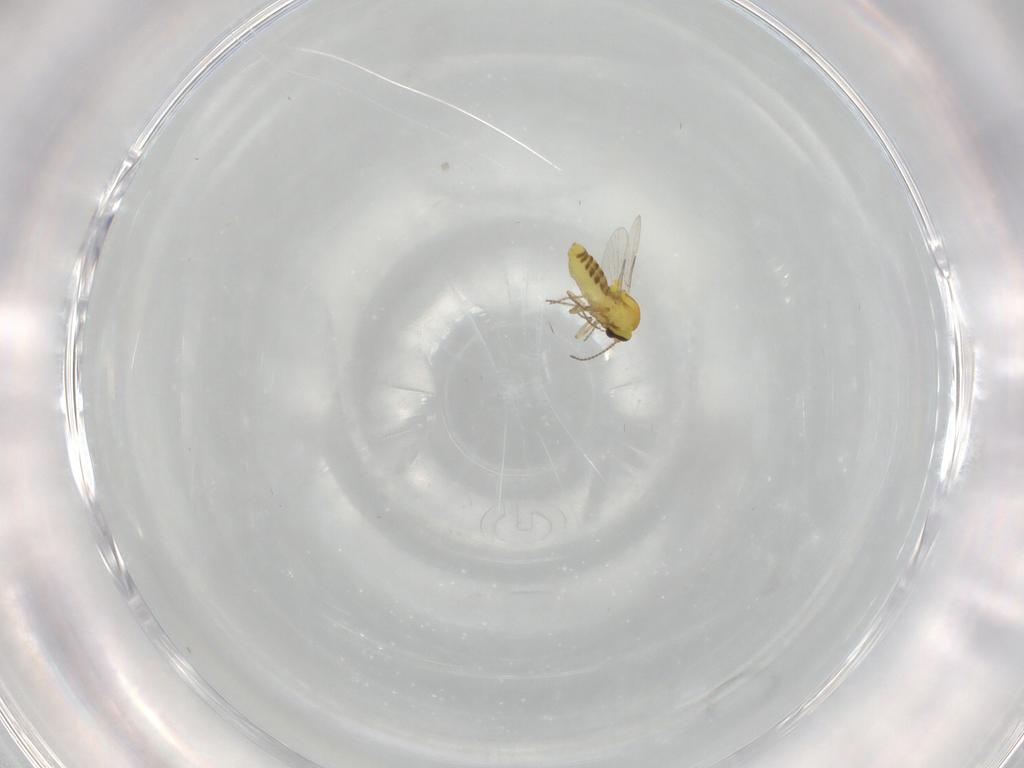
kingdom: Animalia
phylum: Arthropoda
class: Insecta
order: Diptera
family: Ceratopogonidae
